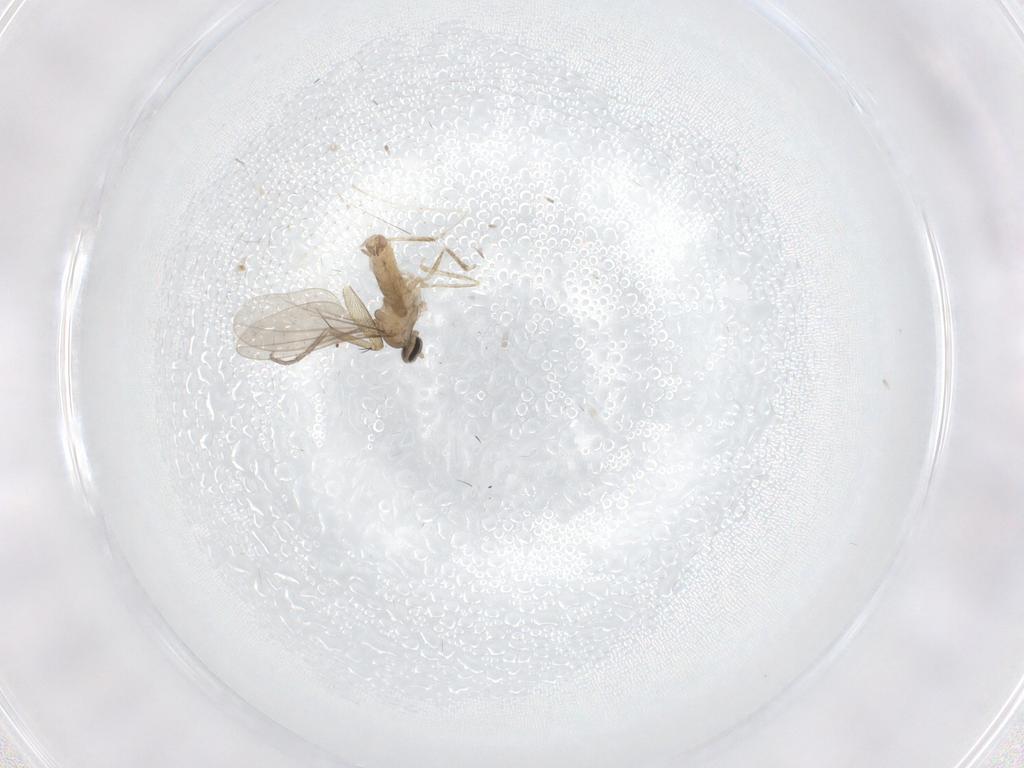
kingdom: Animalia
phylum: Arthropoda
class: Insecta
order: Diptera
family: Cecidomyiidae
